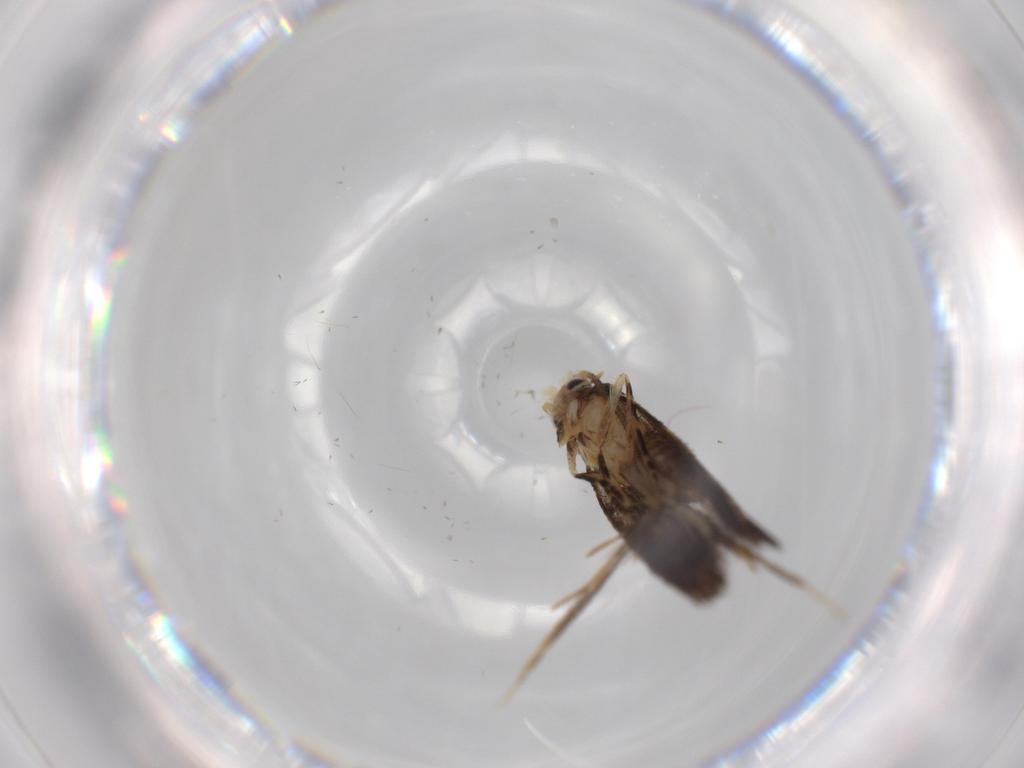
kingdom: Animalia
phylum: Arthropoda
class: Insecta
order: Lepidoptera
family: Tineidae
